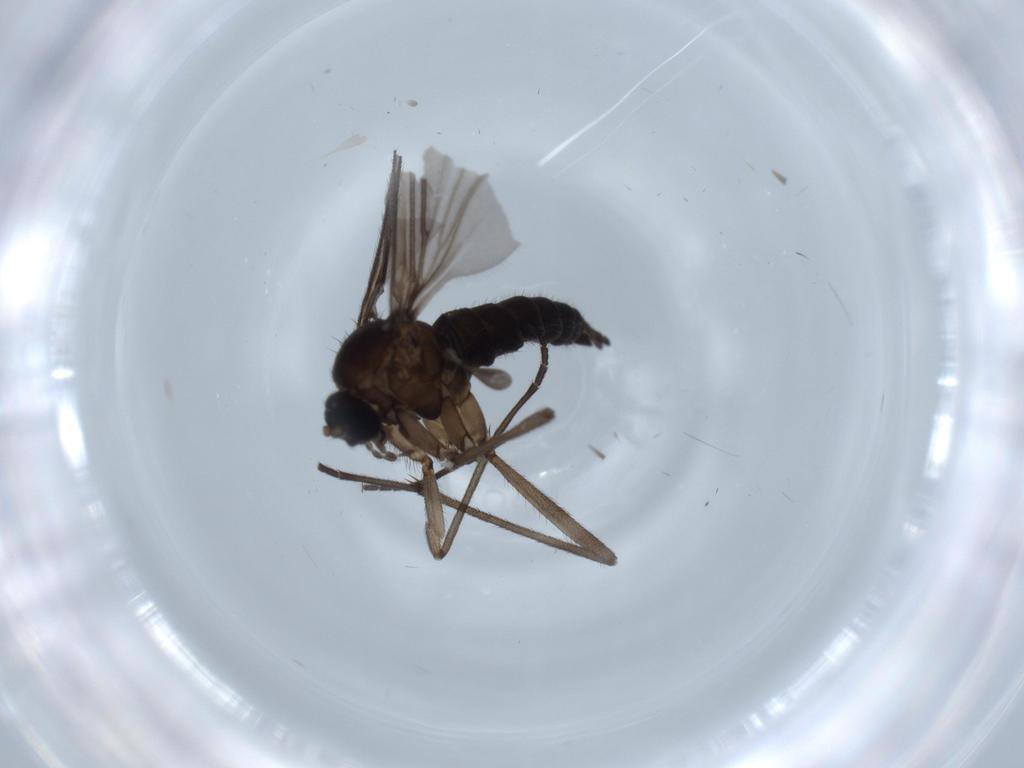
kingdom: Animalia
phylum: Arthropoda
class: Insecta
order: Diptera
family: Sciaridae
